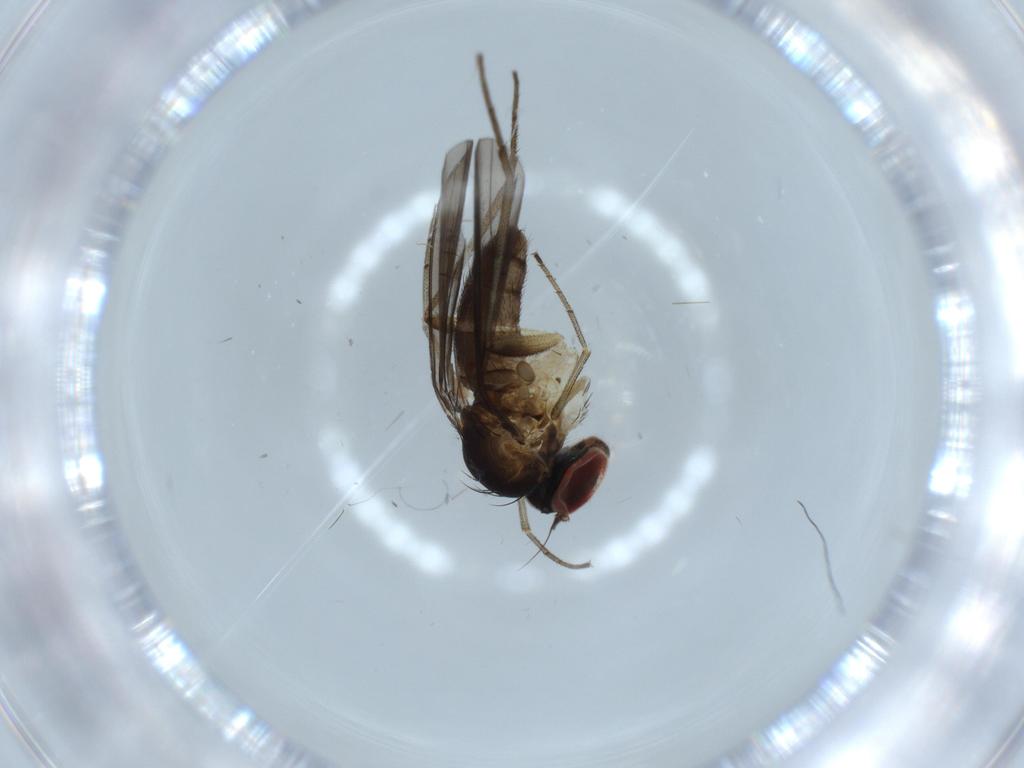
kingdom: Animalia
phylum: Arthropoda
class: Insecta
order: Diptera
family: Dolichopodidae
